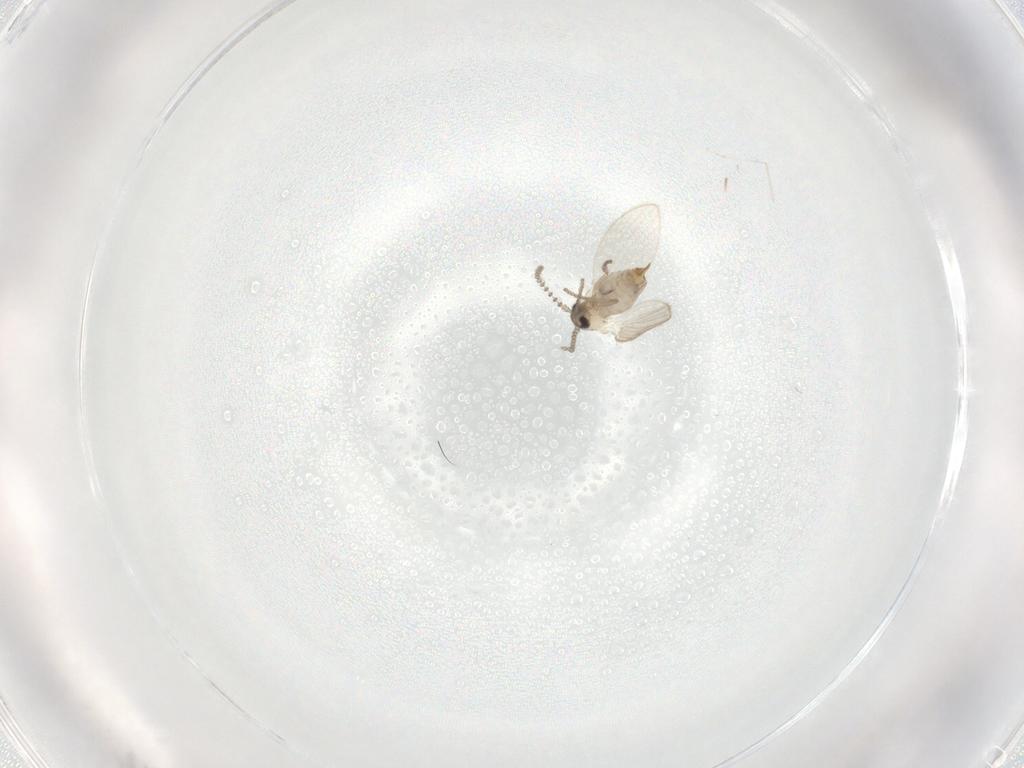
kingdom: Animalia
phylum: Arthropoda
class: Insecta
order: Diptera
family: Psychodidae
